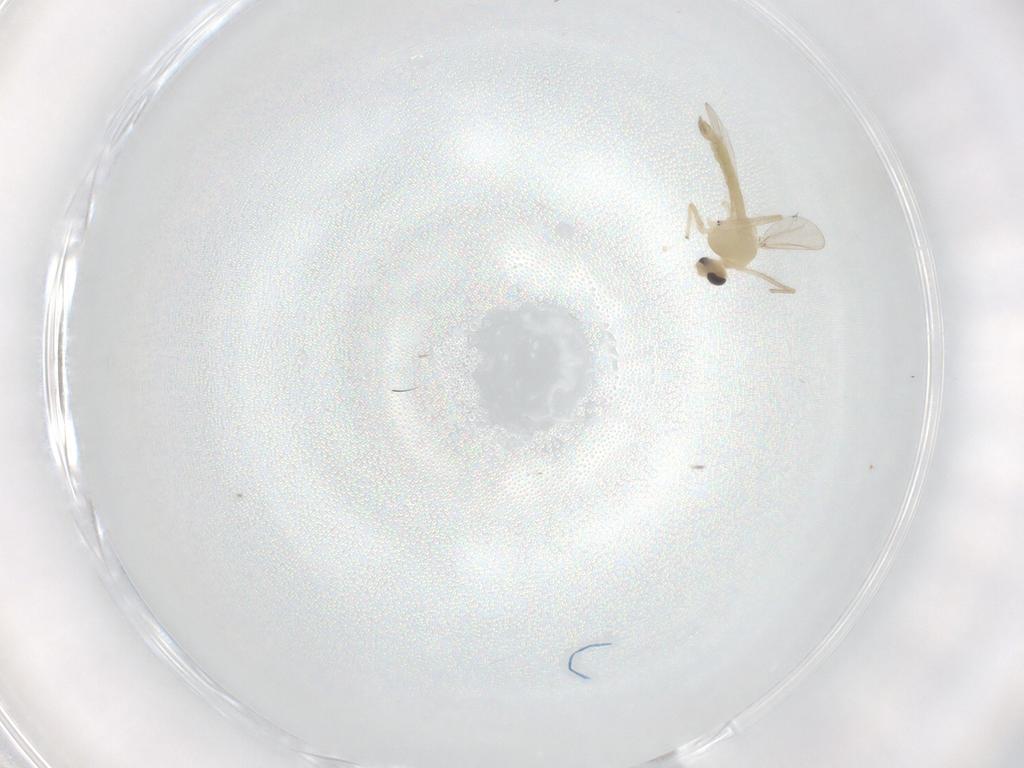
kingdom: Animalia
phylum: Arthropoda
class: Insecta
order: Diptera
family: Chironomidae
